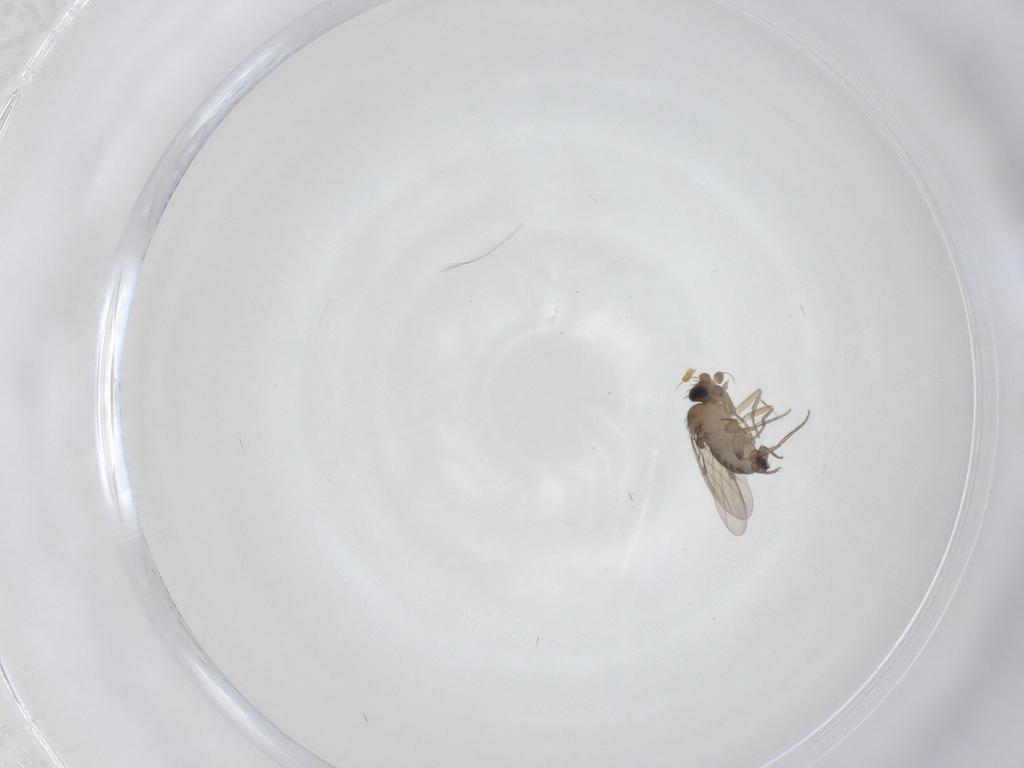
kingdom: Animalia
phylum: Arthropoda
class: Insecta
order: Diptera
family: Phoridae
